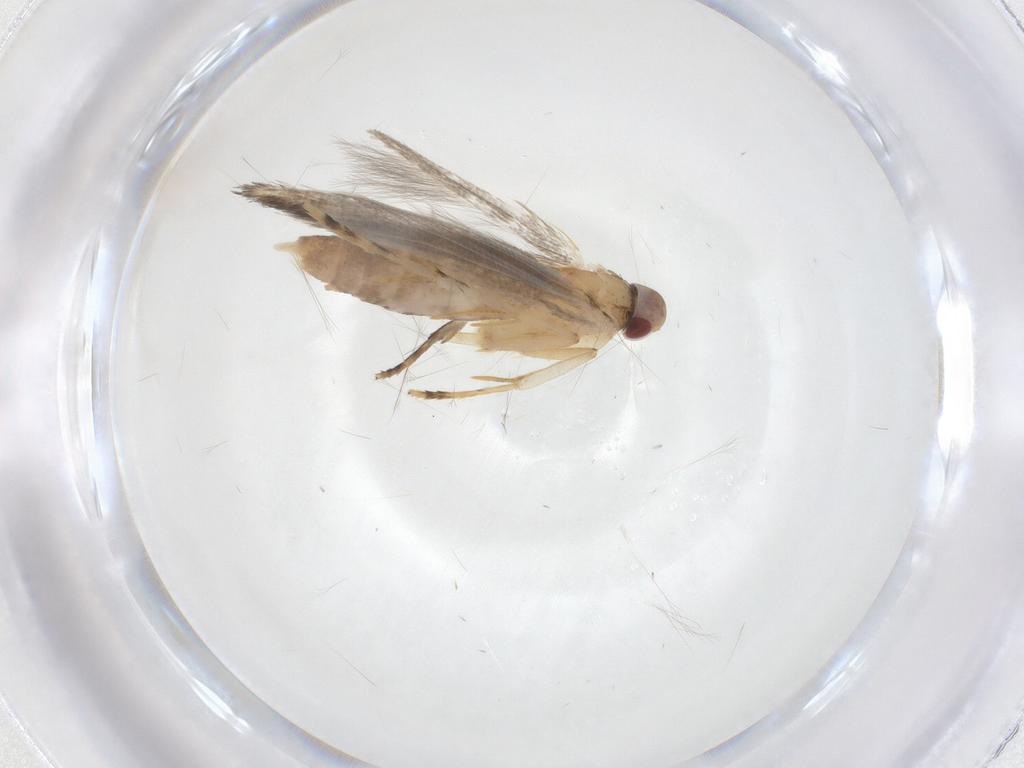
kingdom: Animalia
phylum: Arthropoda
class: Insecta
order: Lepidoptera
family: Cosmopterigidae
